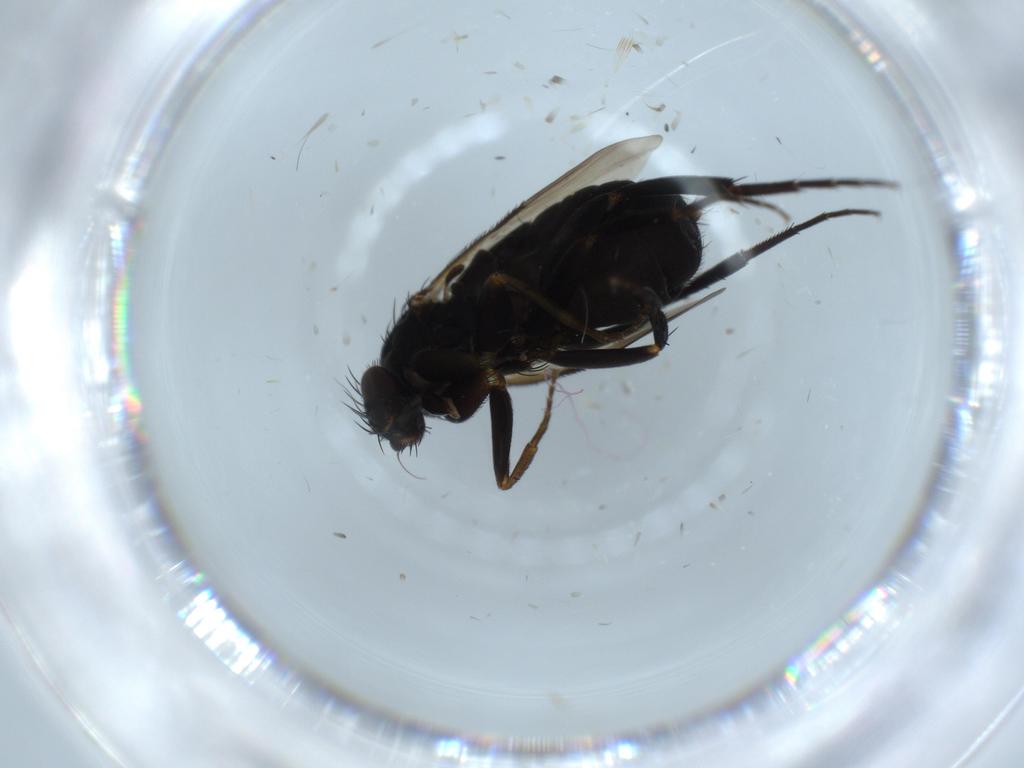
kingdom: Animalia
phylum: Arthropoda
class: Insecta
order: Diptera
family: Phoridae
